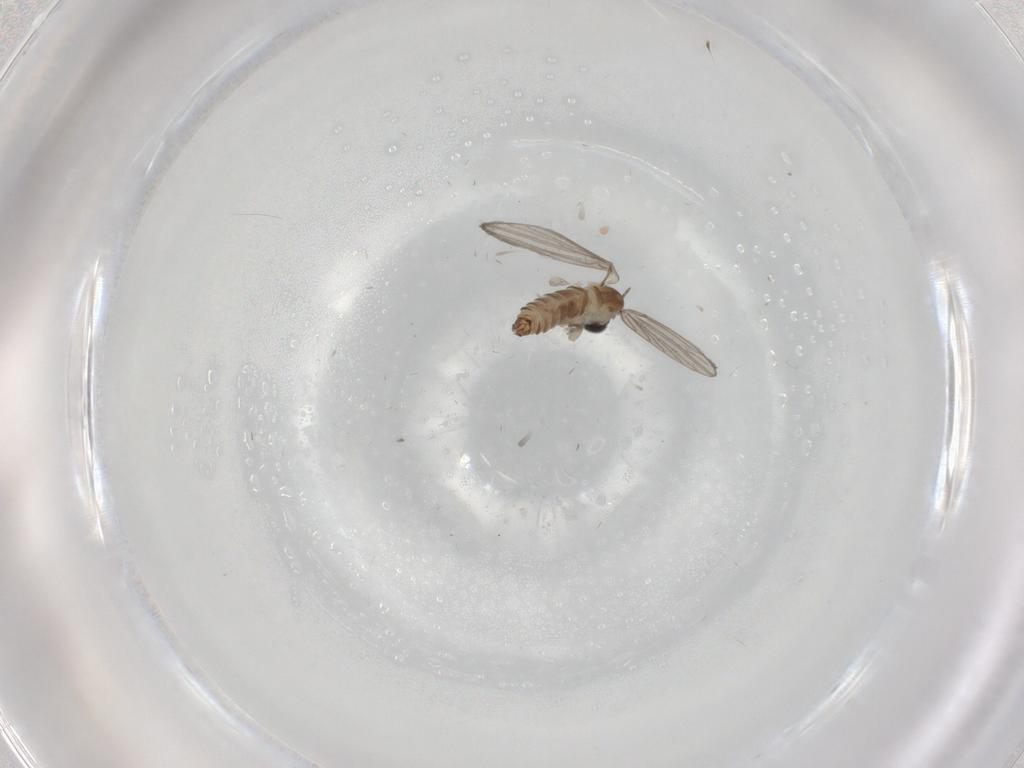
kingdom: Animalia
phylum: Arthropoda
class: Insecta
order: Diptera
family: Sciaridae
